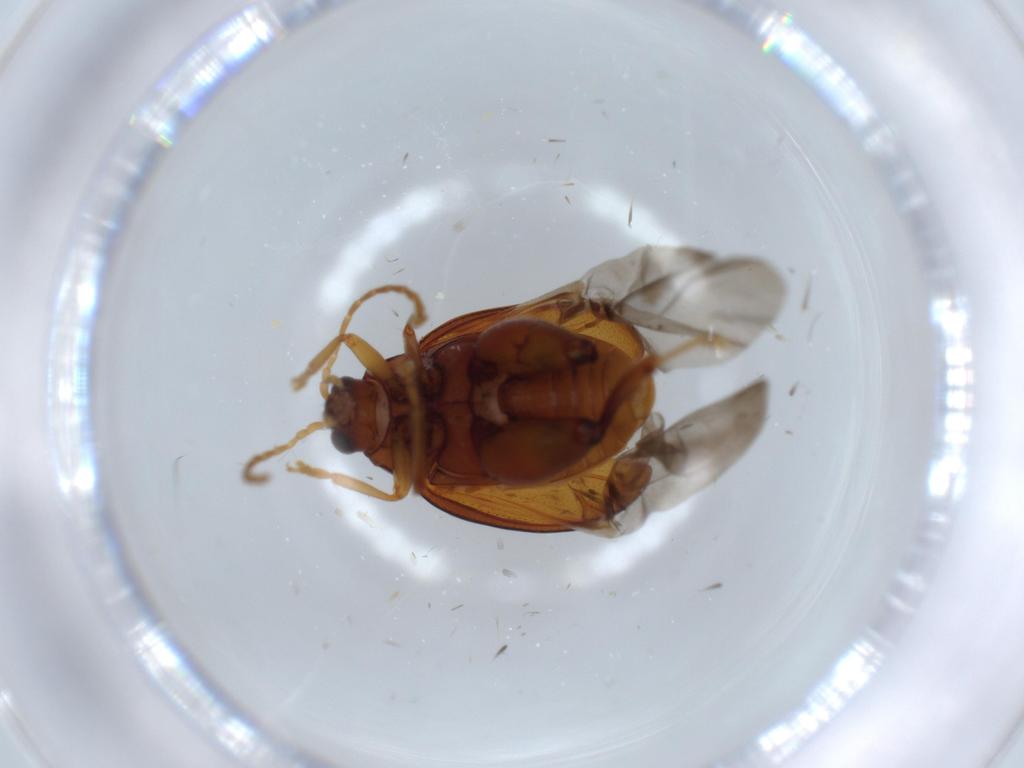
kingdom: Animalia
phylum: Arthropoda
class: Insecta
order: Coleoptera
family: Chrysomelidae
